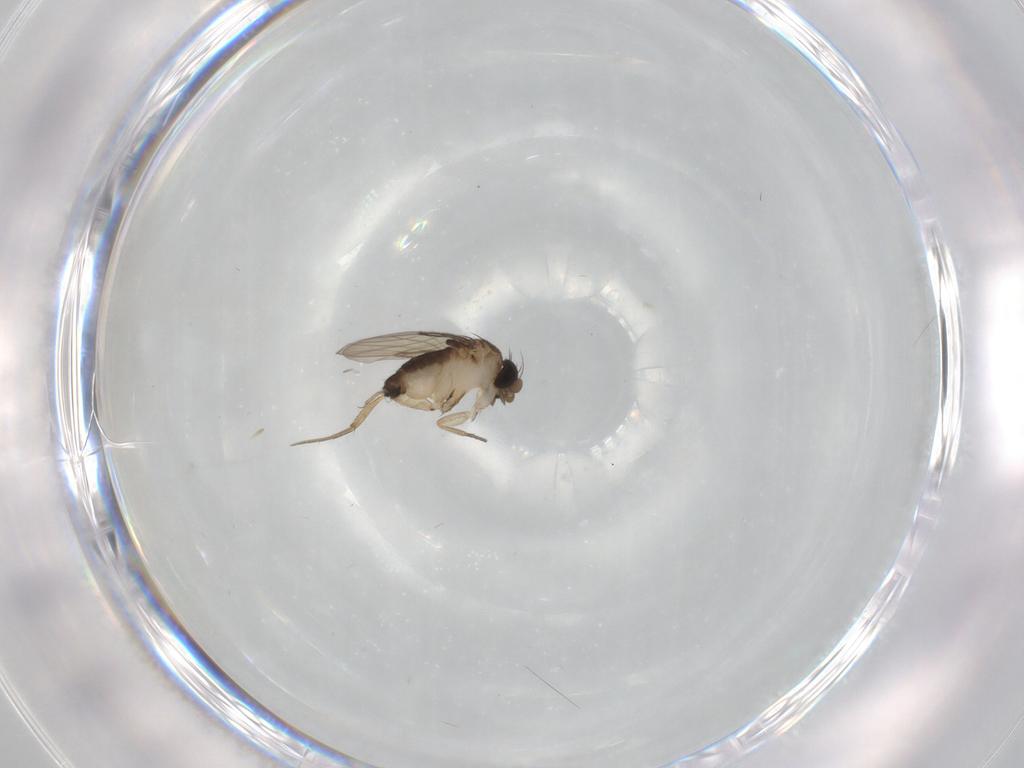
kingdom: Animalia
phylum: Arthropoda
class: Insecta
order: Diptera
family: Phoridae
